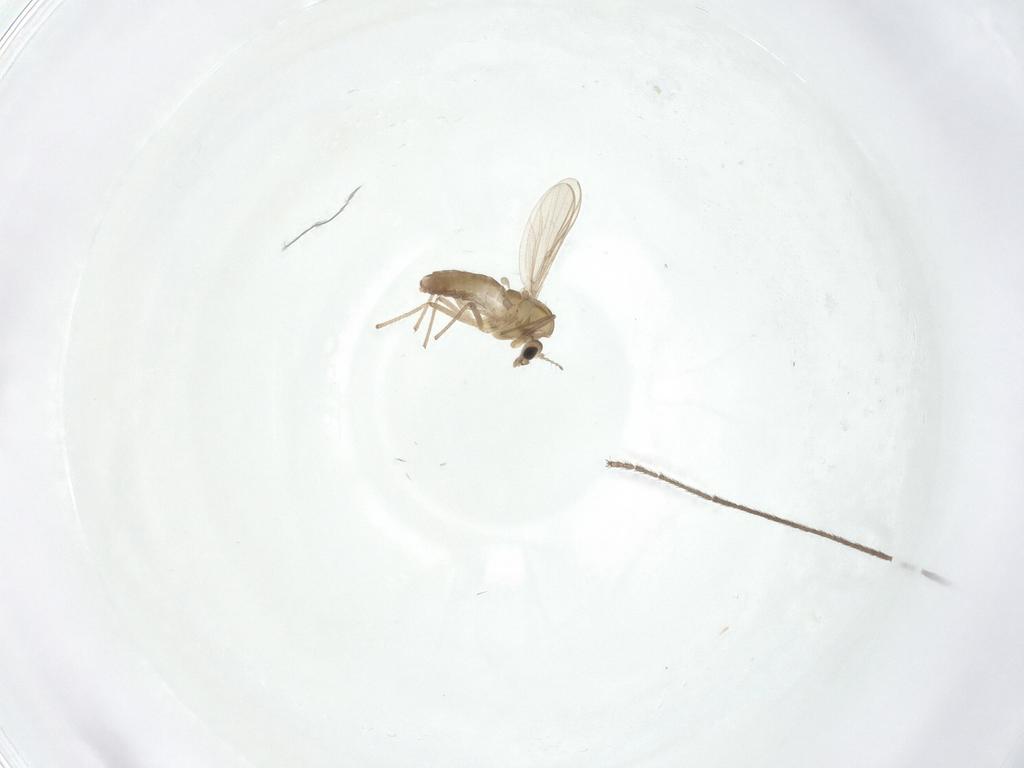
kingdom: Animalia
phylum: Arthropoda
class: Insecta
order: Diptera
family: Limoniidae
